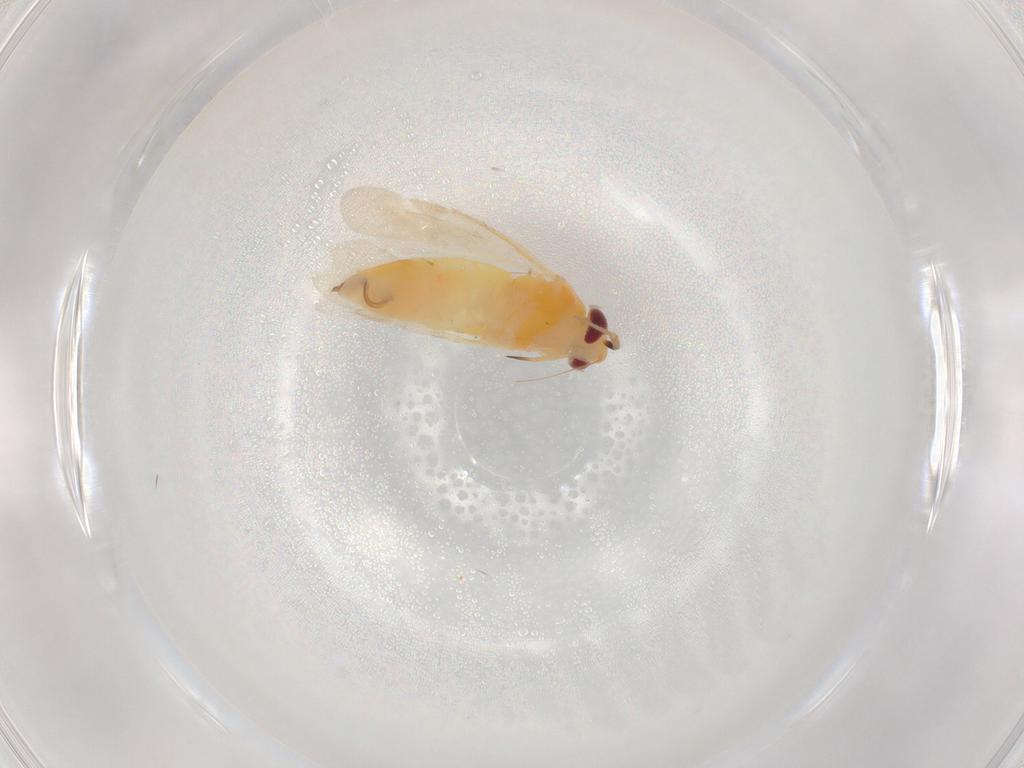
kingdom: Animalia
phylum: Arthropoda
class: Insecta
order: Hemiptera
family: Miridae
